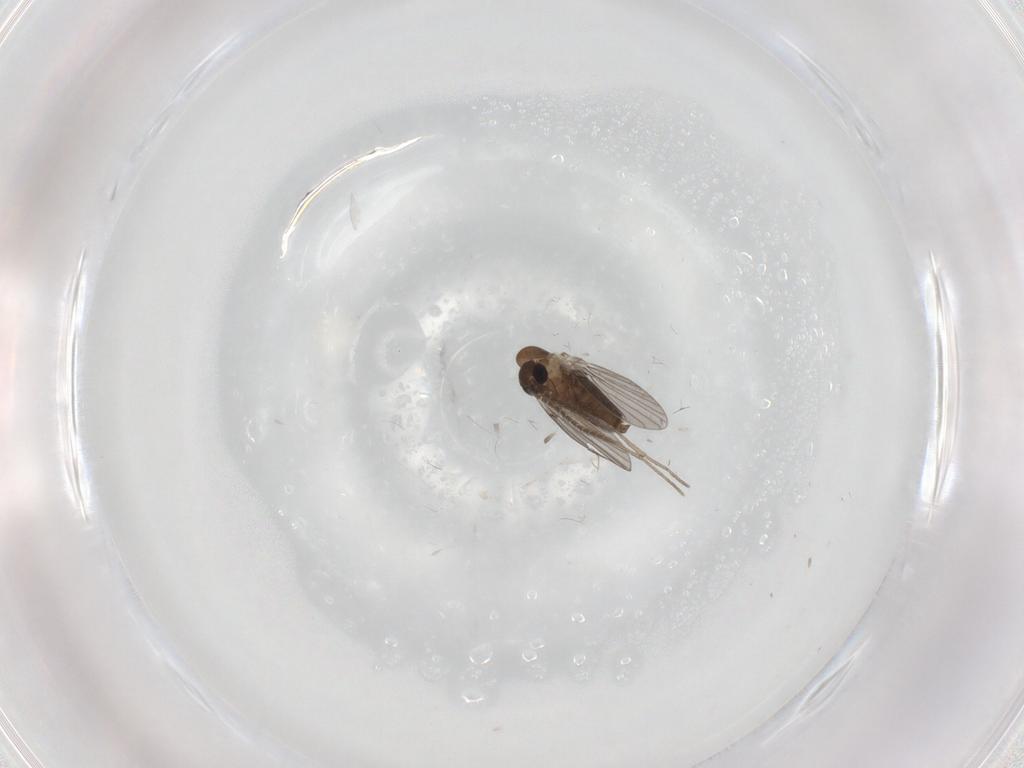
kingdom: Animalia
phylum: Arthropoda
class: Insecta
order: Diptera
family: Cecidomyiidae
